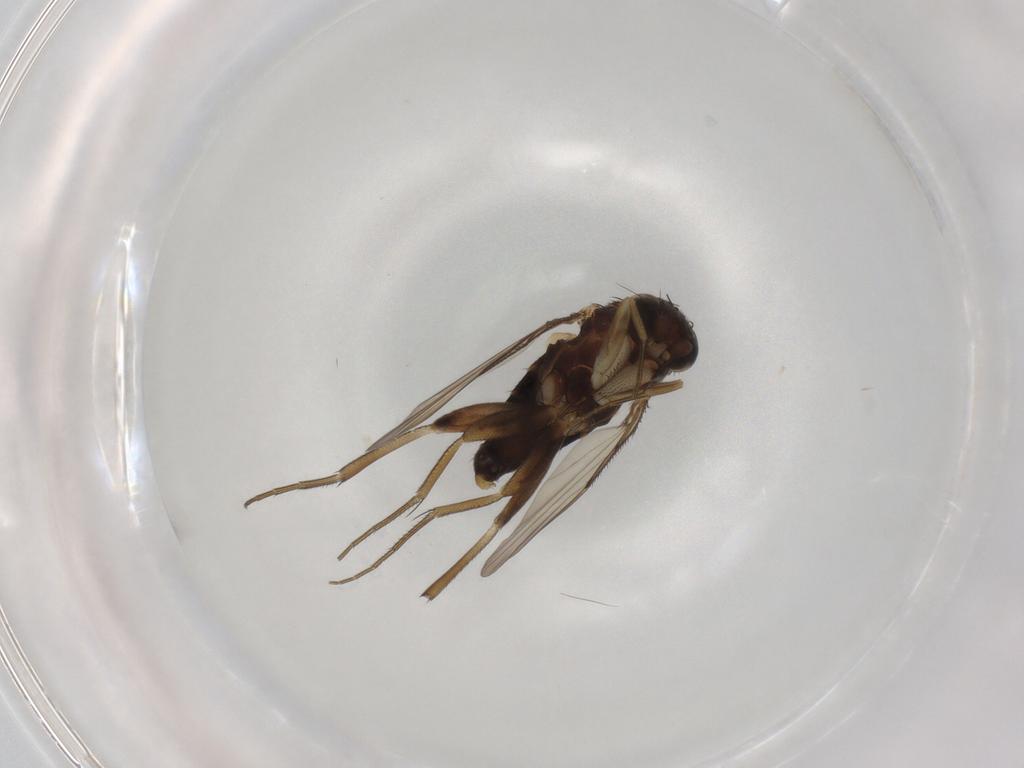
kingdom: Animalia
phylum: Arthropoda
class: Insecta
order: Diptera
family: Phoridae
